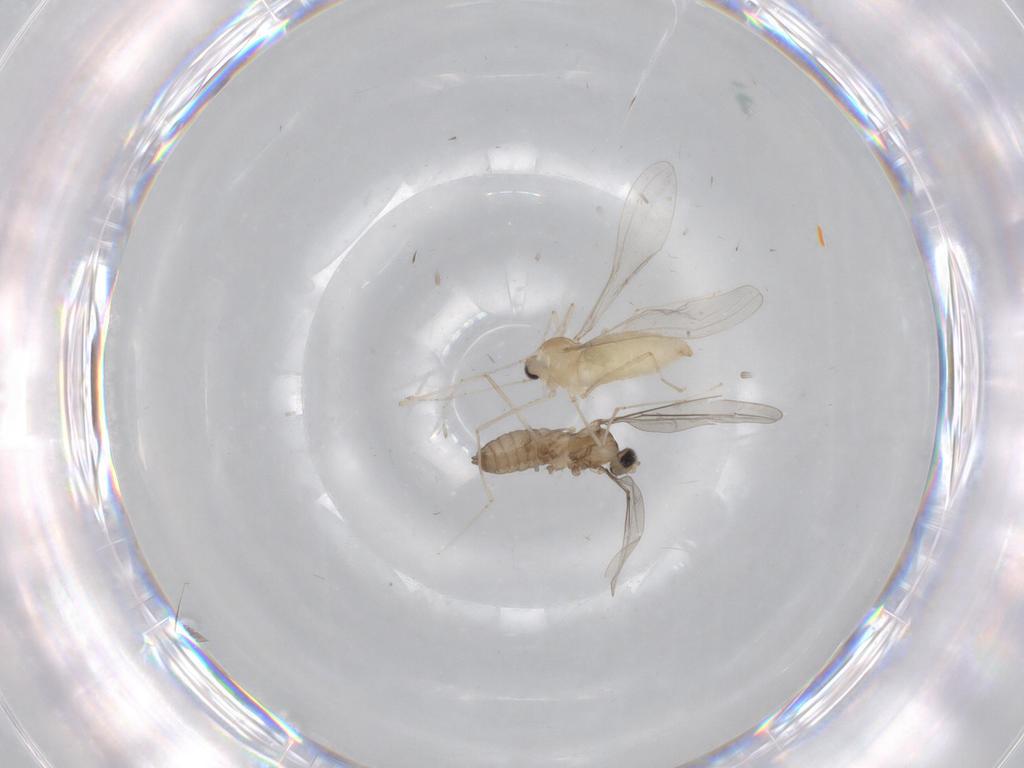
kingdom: Animalia
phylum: Arthropoda
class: Insecta
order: Diptera
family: Cecidomyiidae
